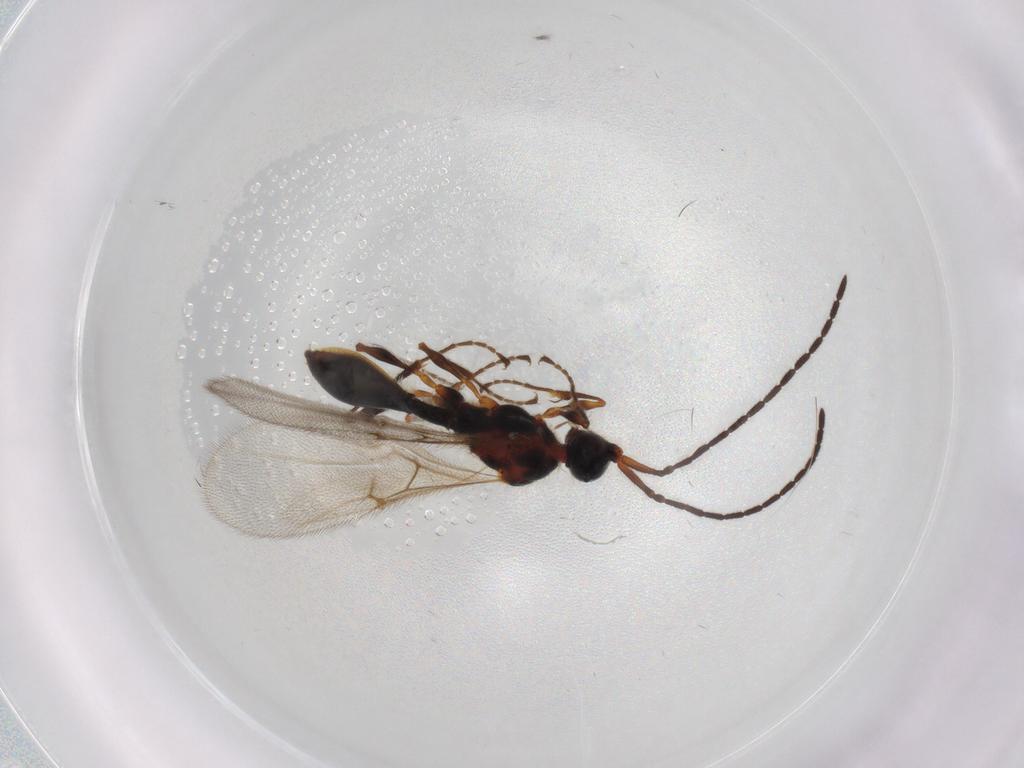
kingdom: Animalia
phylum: Arthropoda
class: Insecta
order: Hymenoptera
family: Diapriidae
